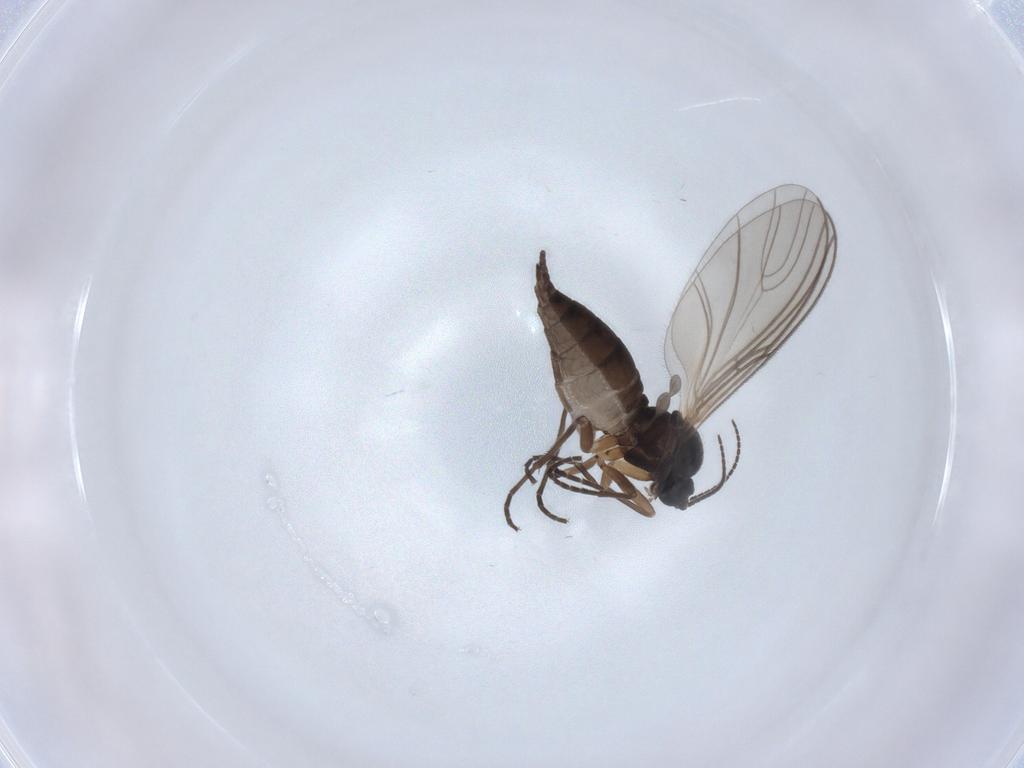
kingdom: Animalia
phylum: Arthropoda
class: Insecta
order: Diptera
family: Sciaridae
